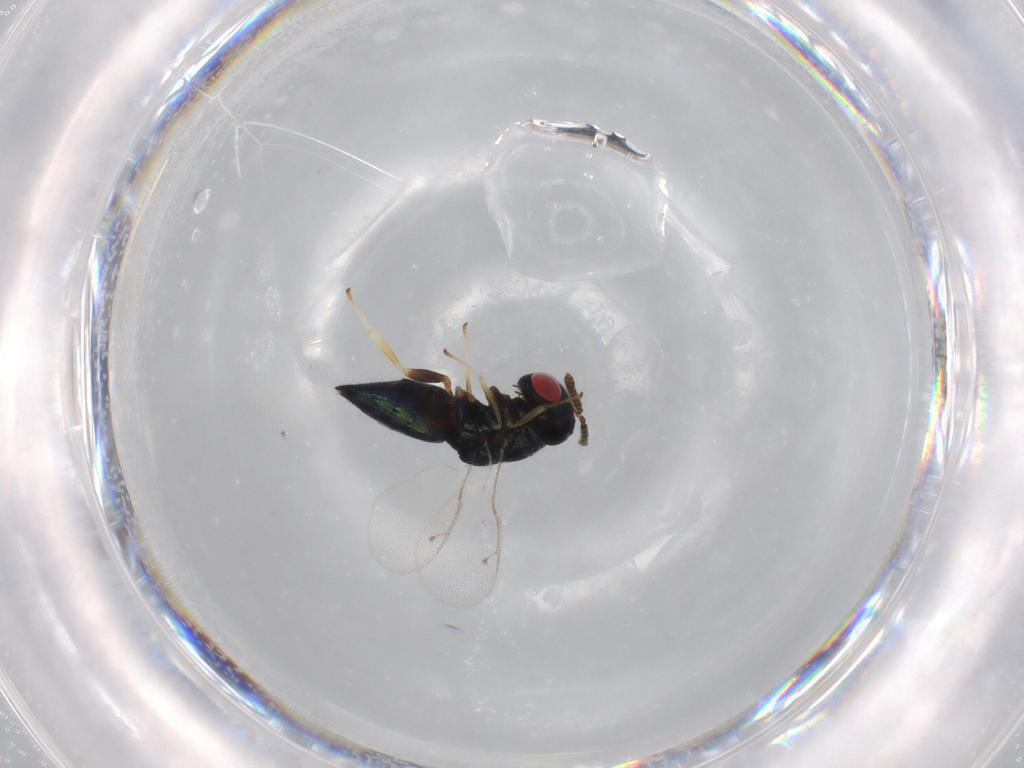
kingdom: Animalia
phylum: Arthropoda
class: Insecta
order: Hymenoptera
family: Pteromalidae
